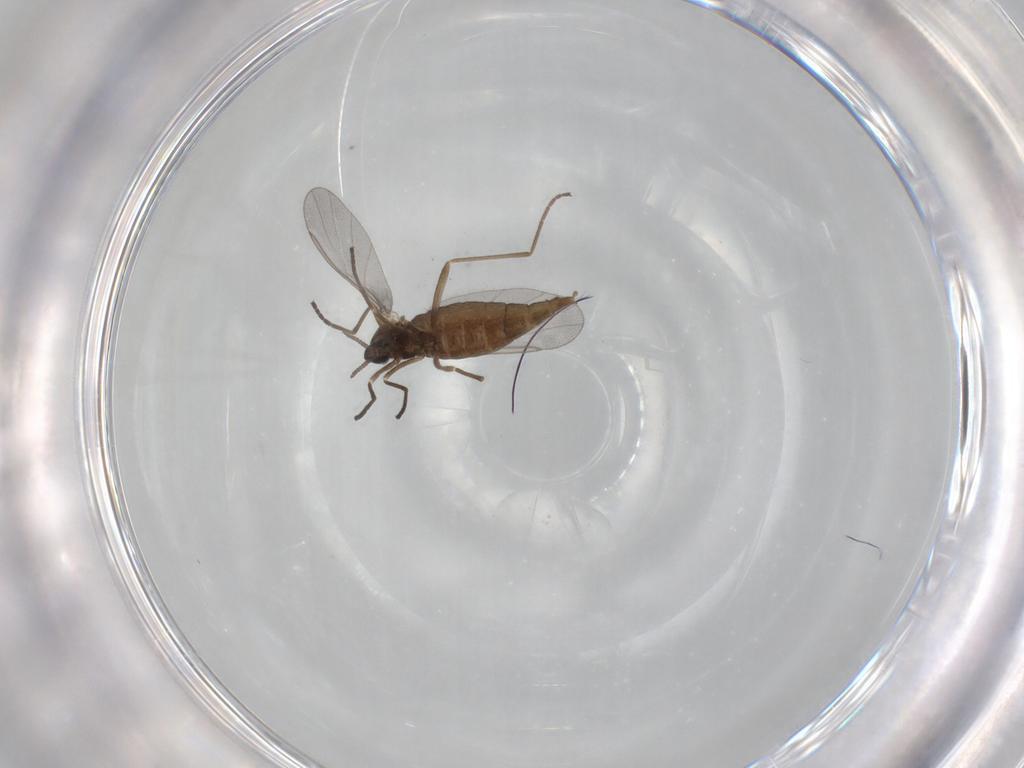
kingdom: Animalia
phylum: Arthropoda
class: Insecta
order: Diptera
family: Cecidomyiidae
